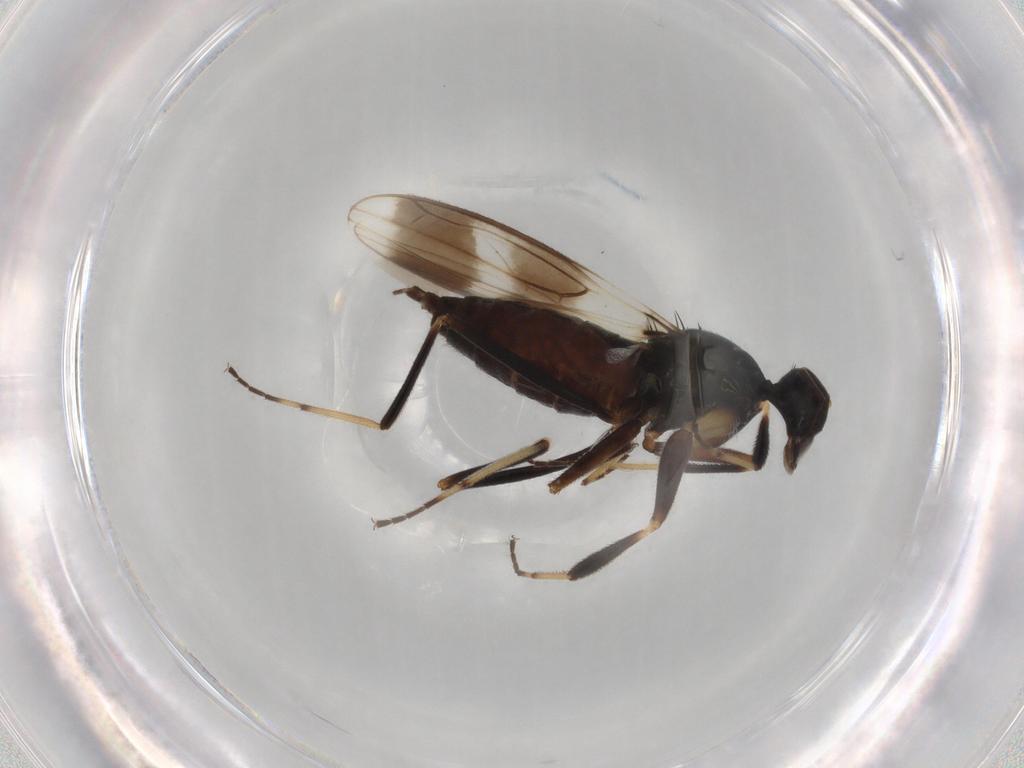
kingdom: Animalia
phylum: Arthropoda
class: Insecta
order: Diptera
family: Hybotidae
